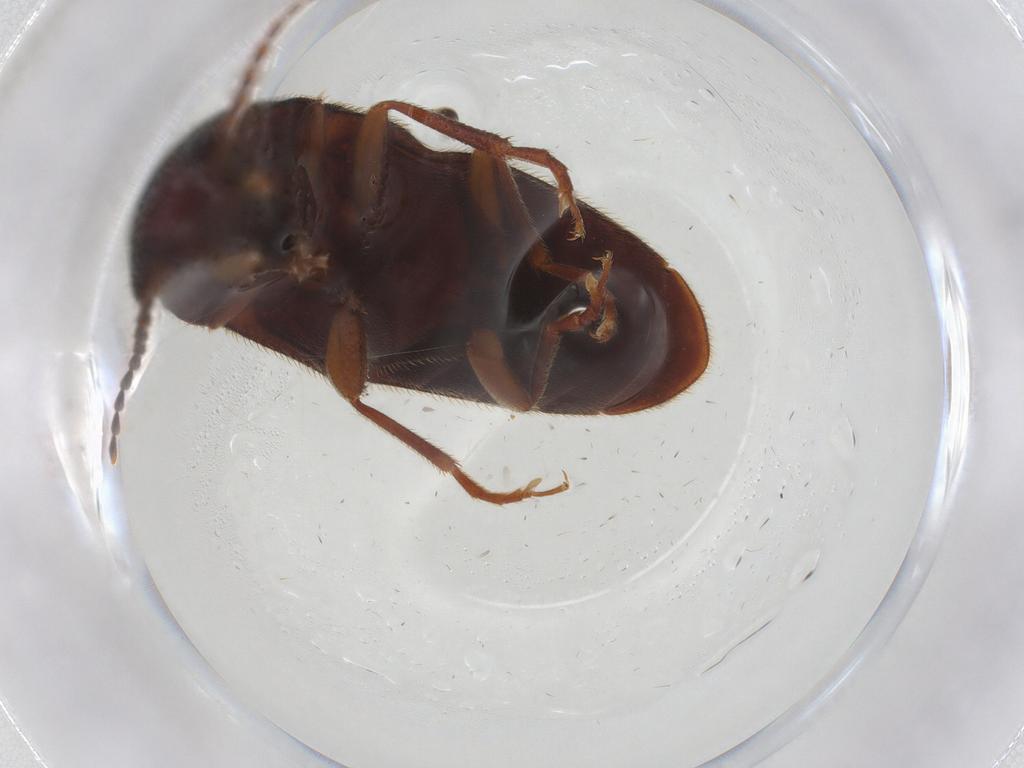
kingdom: Animalia
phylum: Arthropoda
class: Insecta
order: Coleoptera
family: Elateridae
